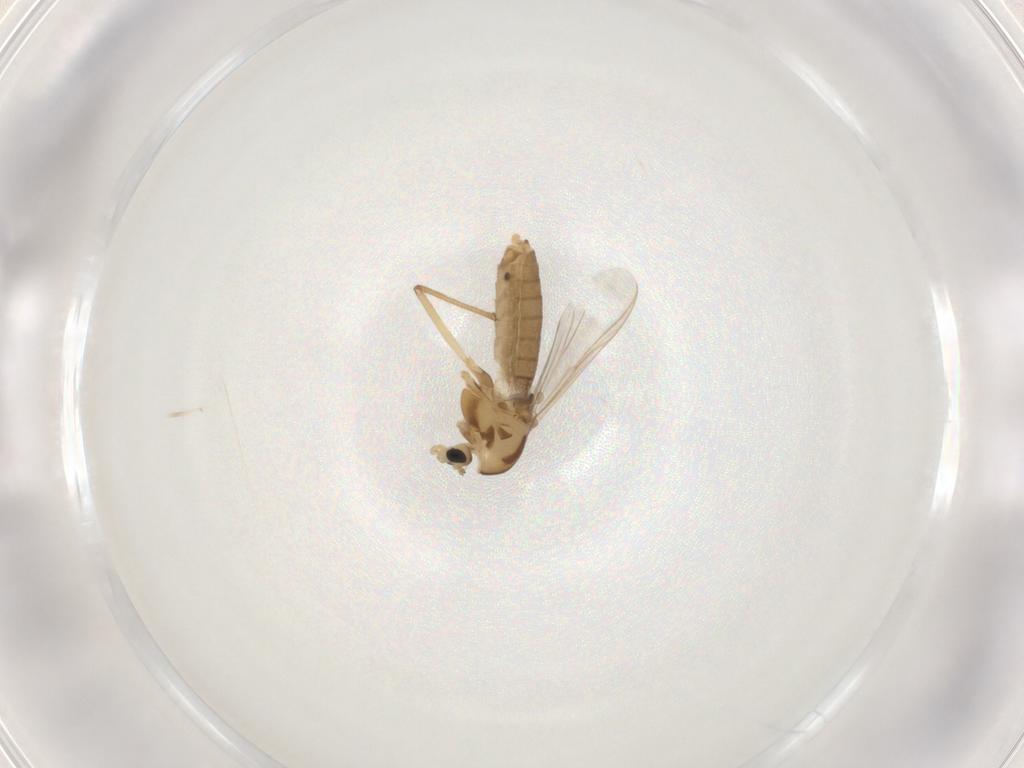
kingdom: Animalia
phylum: Arthropoda
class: Insecta
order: Diptera
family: Chironomidae
